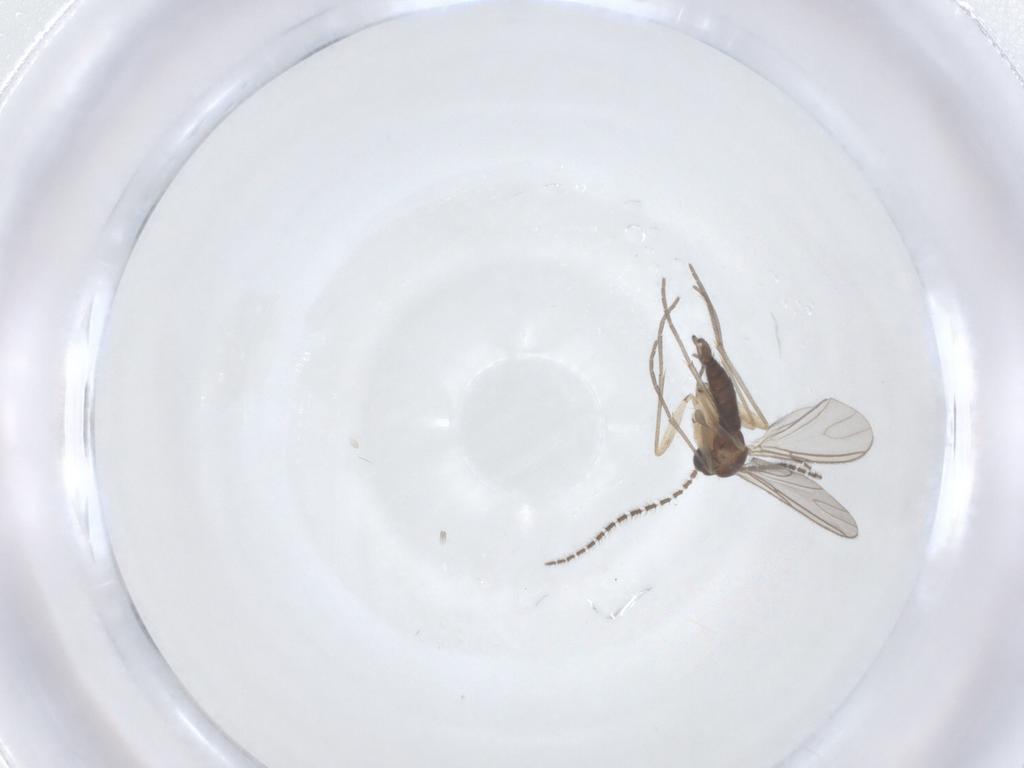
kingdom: Animalia
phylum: Arthropoda
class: Insecta
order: Diptera
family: Sciaridae
